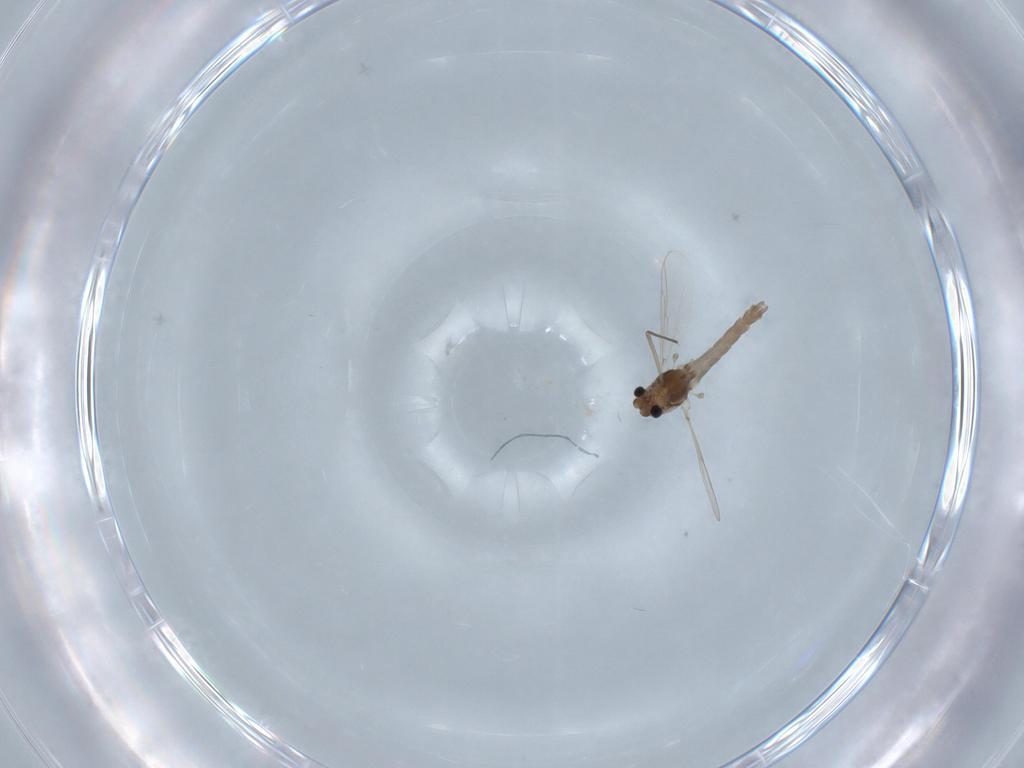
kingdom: Animalia
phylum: Arthropoda
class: Insecta
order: Diptera
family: Chironomidae
